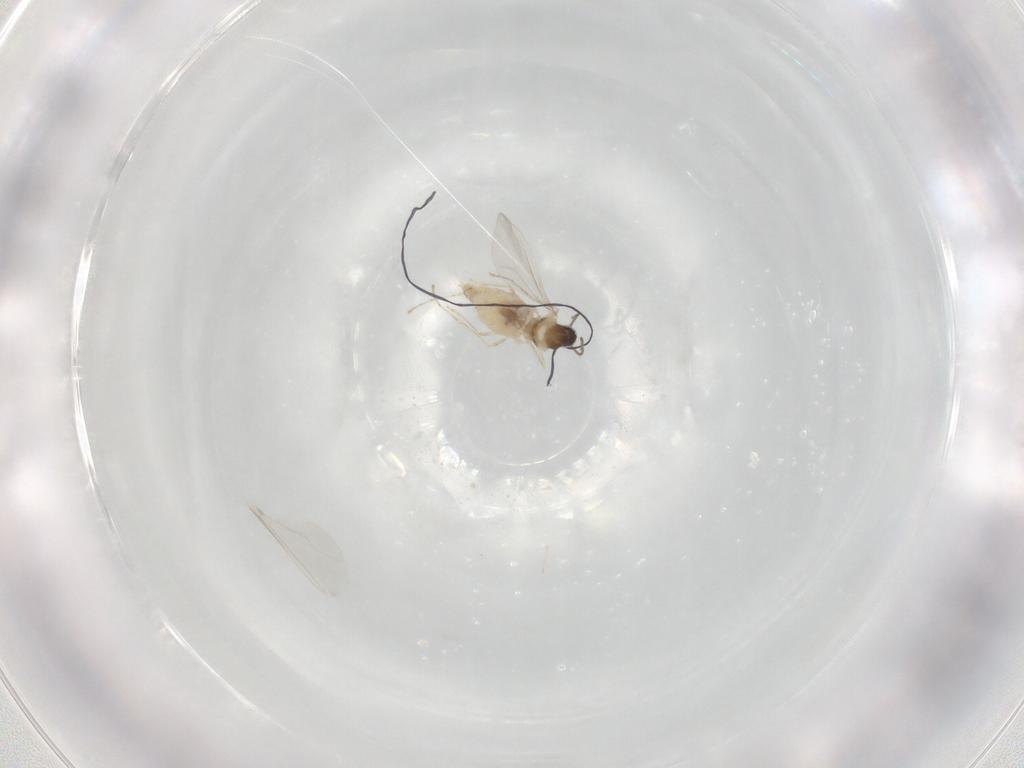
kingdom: Animalia
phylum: Arthropoda
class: Insecta
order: Diptera
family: Cecidomyiidae
